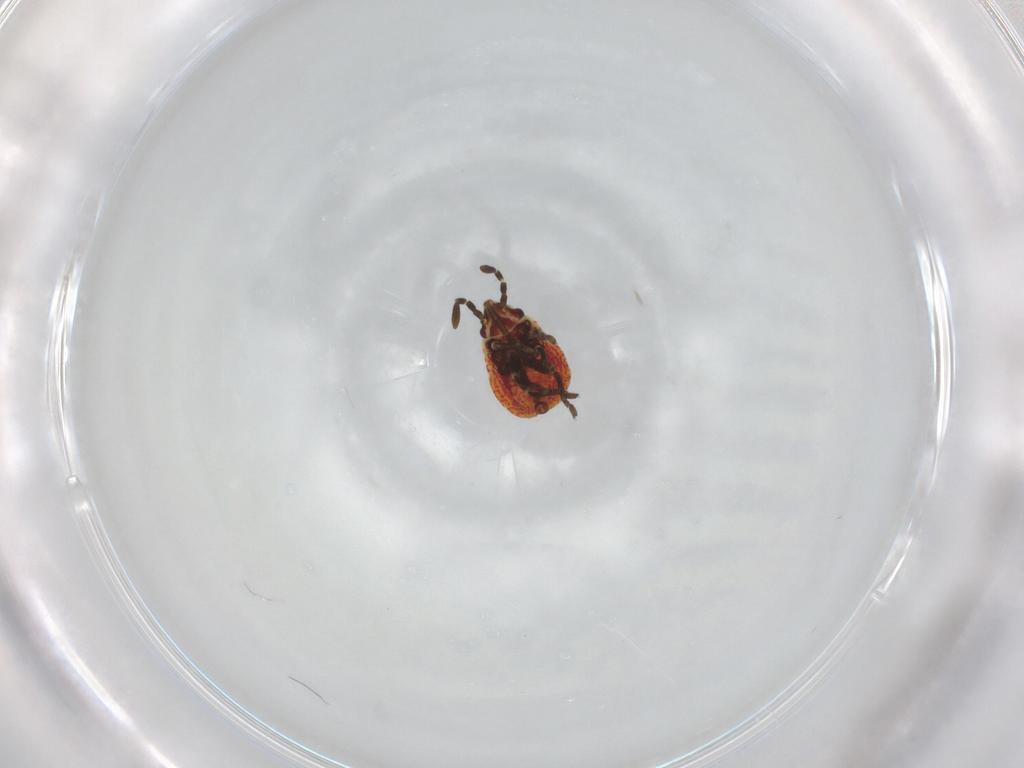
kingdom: Animalia
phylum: Arthropoda
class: Insecta
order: Hemiptera
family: Lygaeidae
